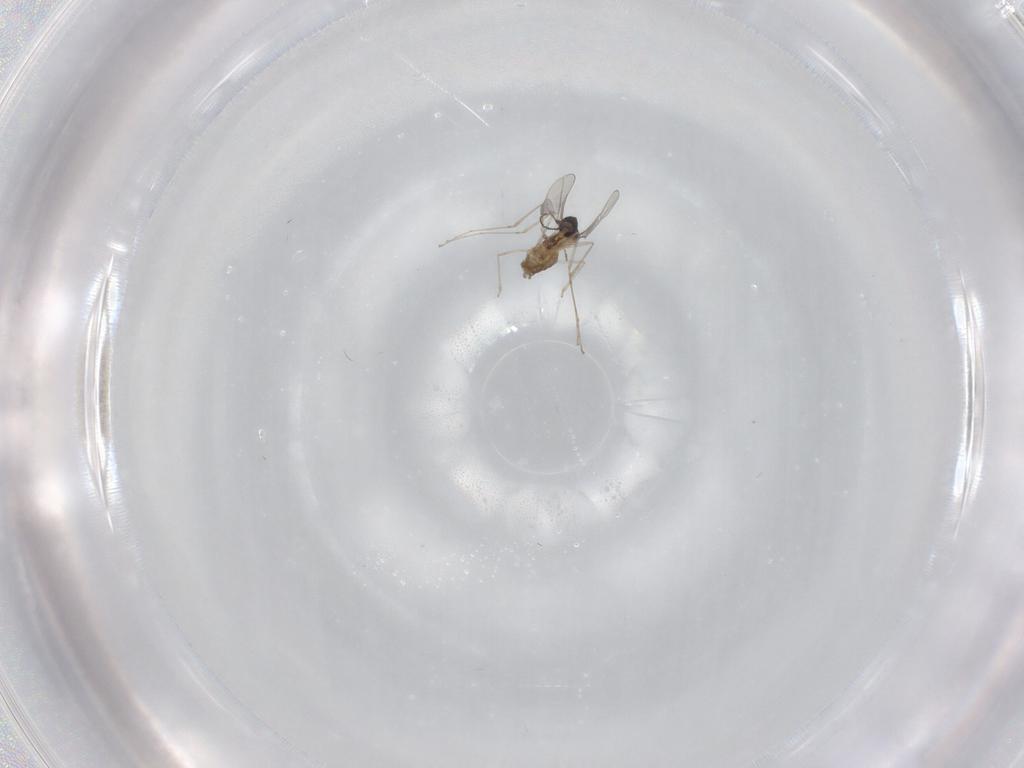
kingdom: Animalia
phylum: Arthropoda
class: Insecta
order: Diptera
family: Cecidomyiidae
